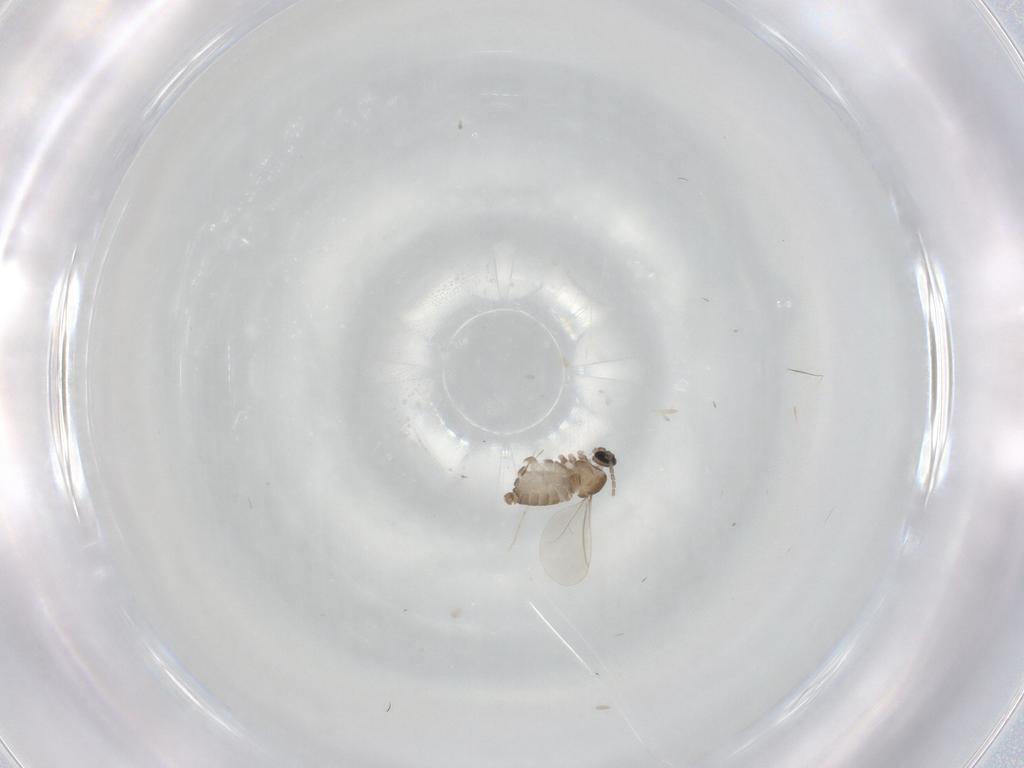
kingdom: Animalia
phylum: Arthropoda
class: Insecta
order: Diptera
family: Cecidomyiidae
